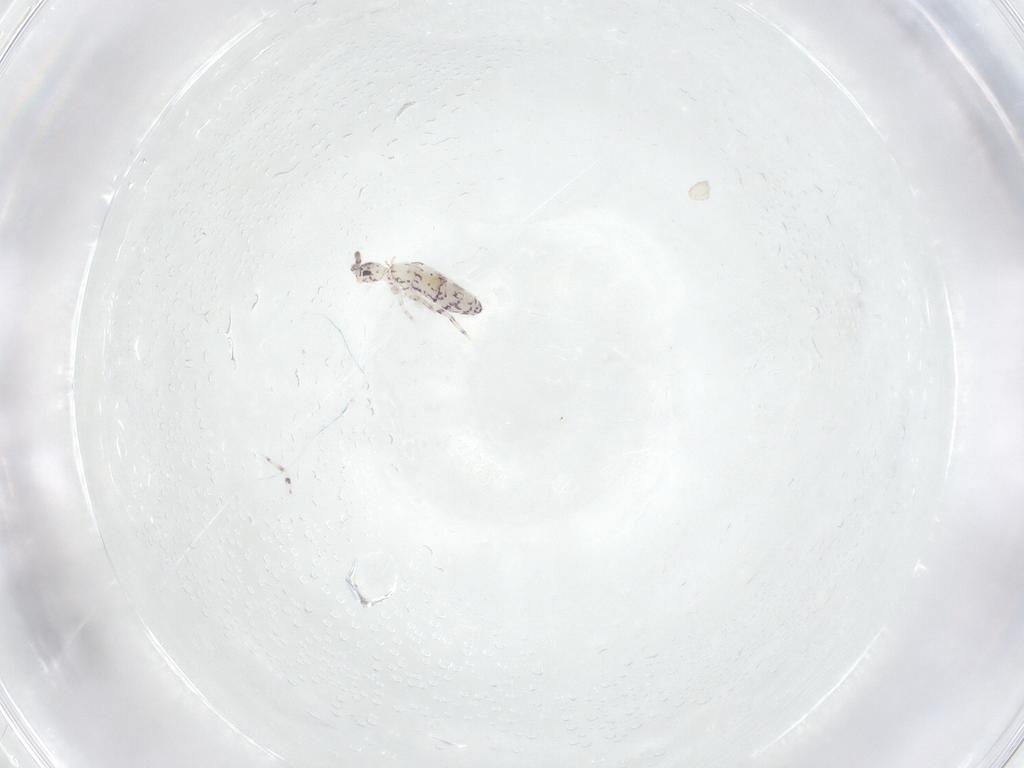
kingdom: Animalia
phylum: Arthropoda
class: Collembola
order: Entomobryomorpha
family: Entomobryidae
